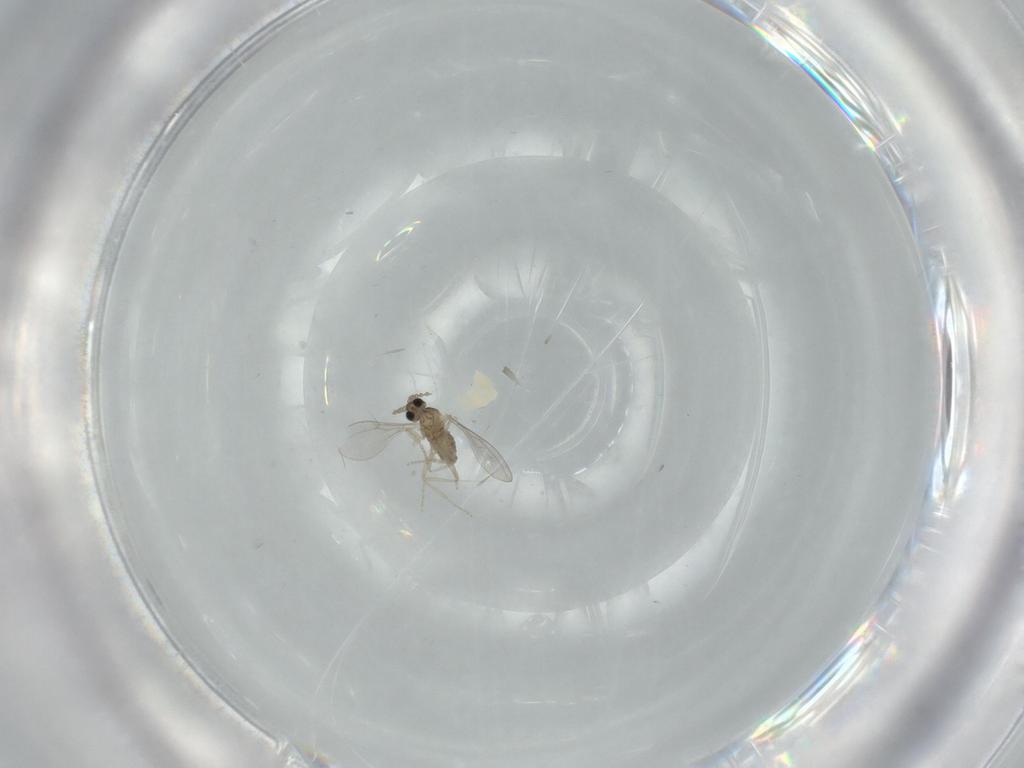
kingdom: Animalia
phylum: Arthropoda
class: Insecta
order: Diptera
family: Cecidomyiidae
